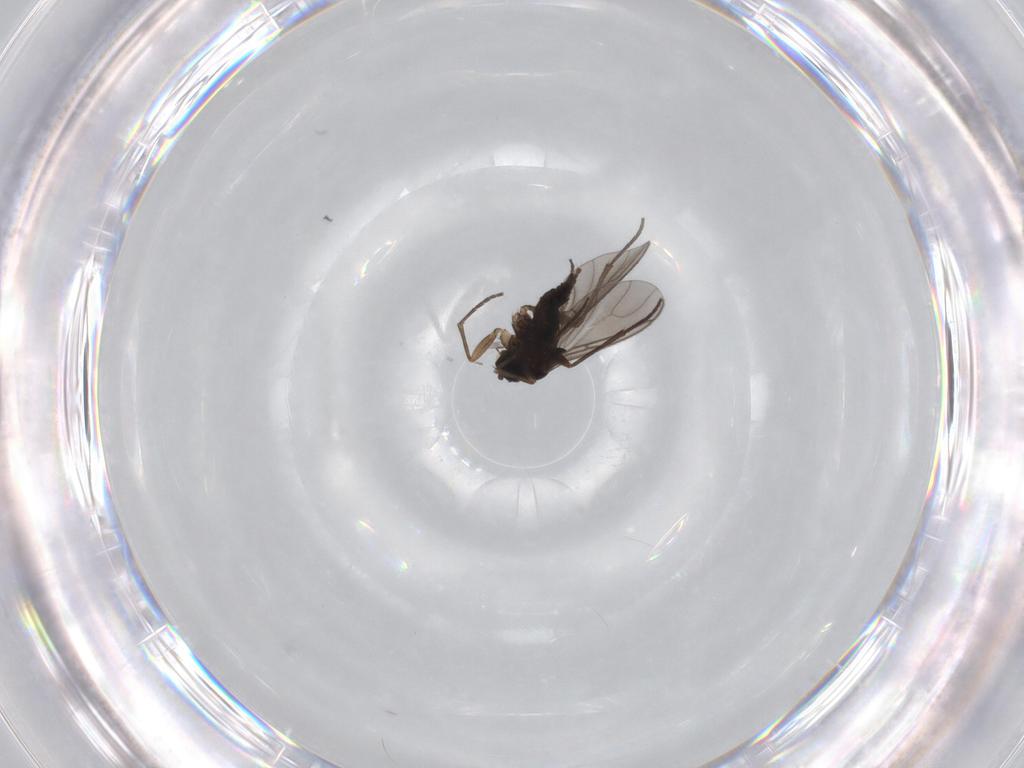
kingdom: Animalia
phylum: Arthropoda
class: Insecta
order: Diptera
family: Sciaridae
